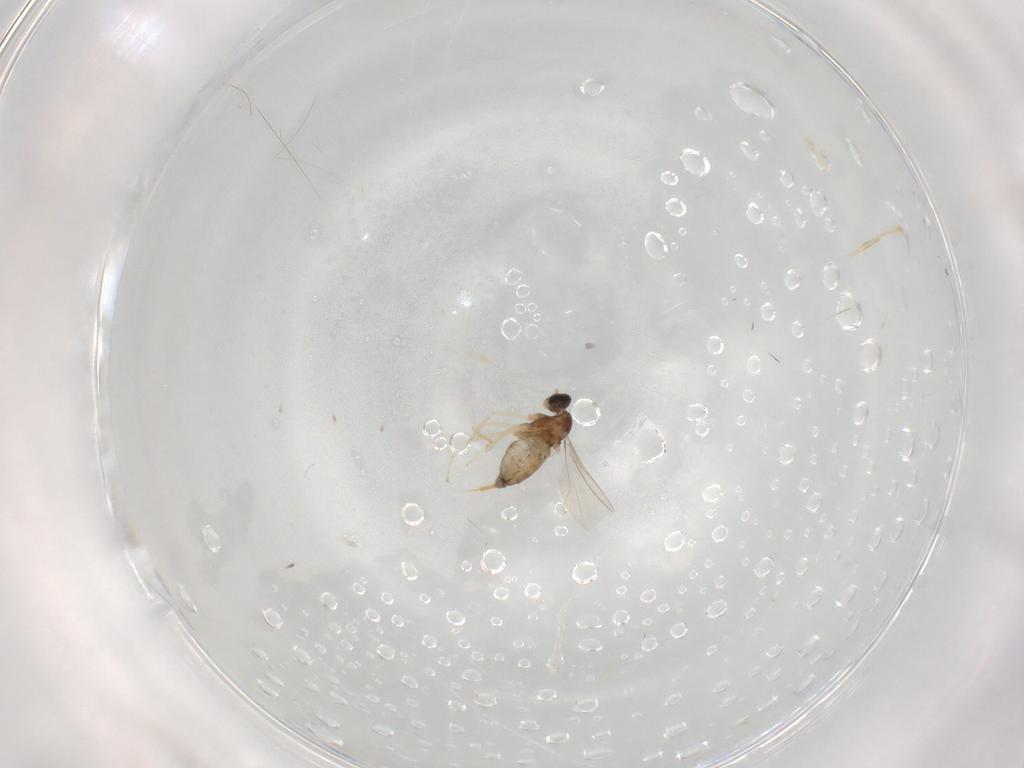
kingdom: Animalia
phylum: Arthropoda
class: Insecta
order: Diptera
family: Cecidomyiidae
